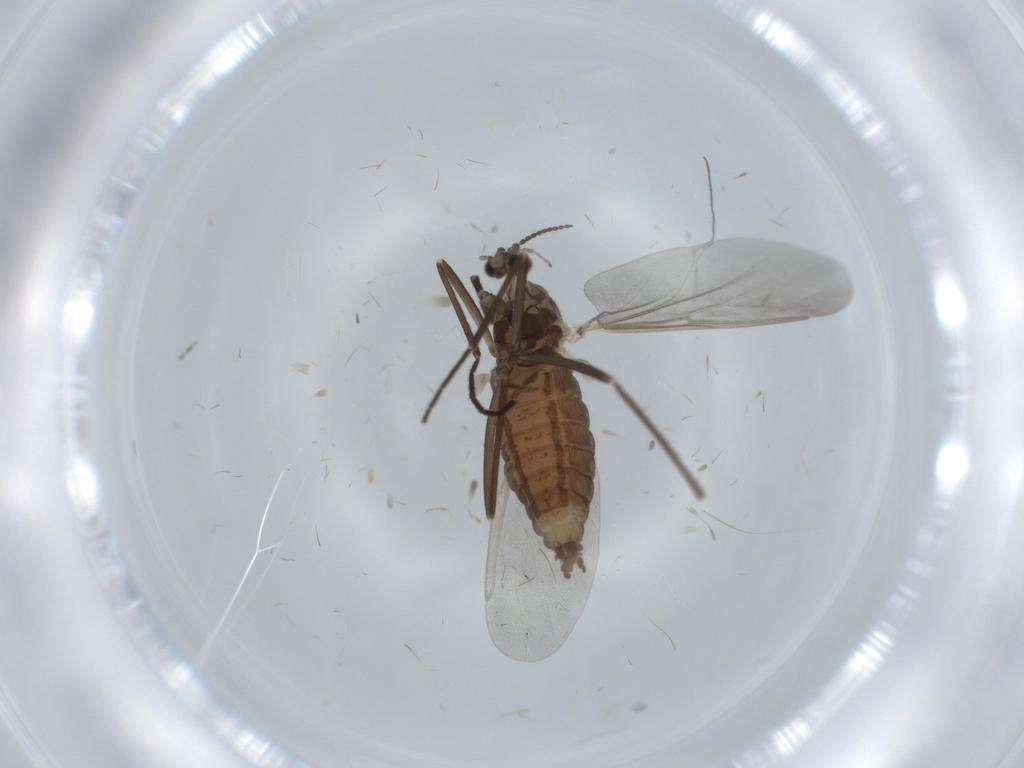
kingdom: Animalia
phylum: Arthropoda
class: Insecta
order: Diptera
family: Cecidomyiidae
